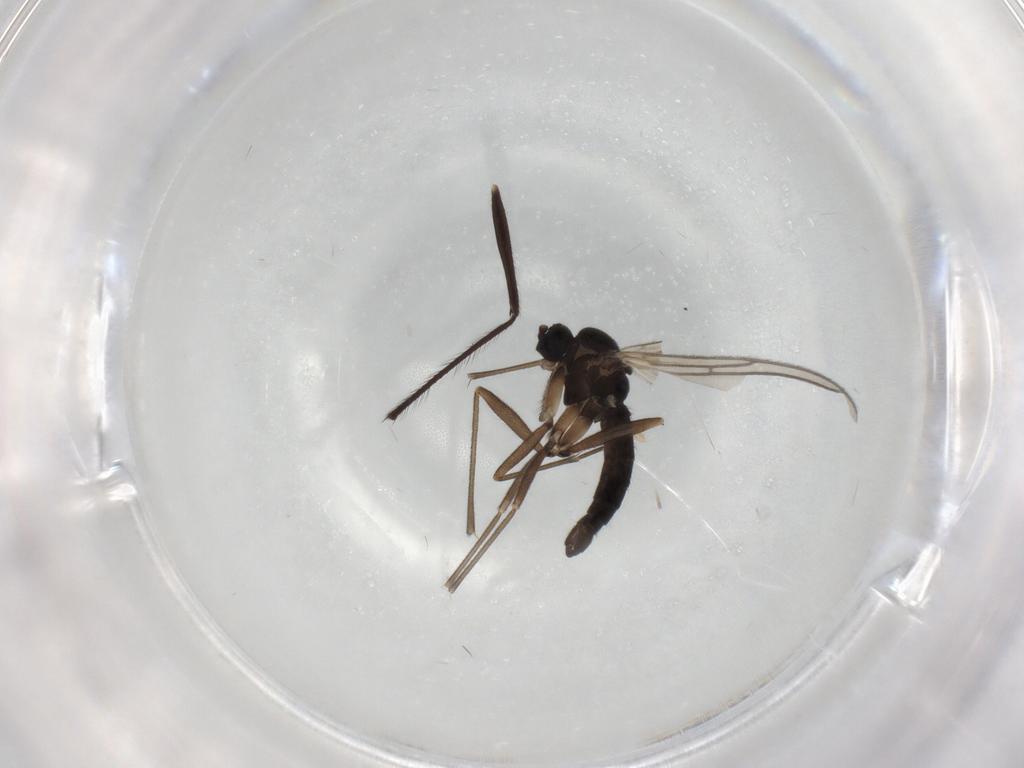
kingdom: Animalia
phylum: Arthropoda
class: Insecta
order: Diptera
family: Sciaridae
